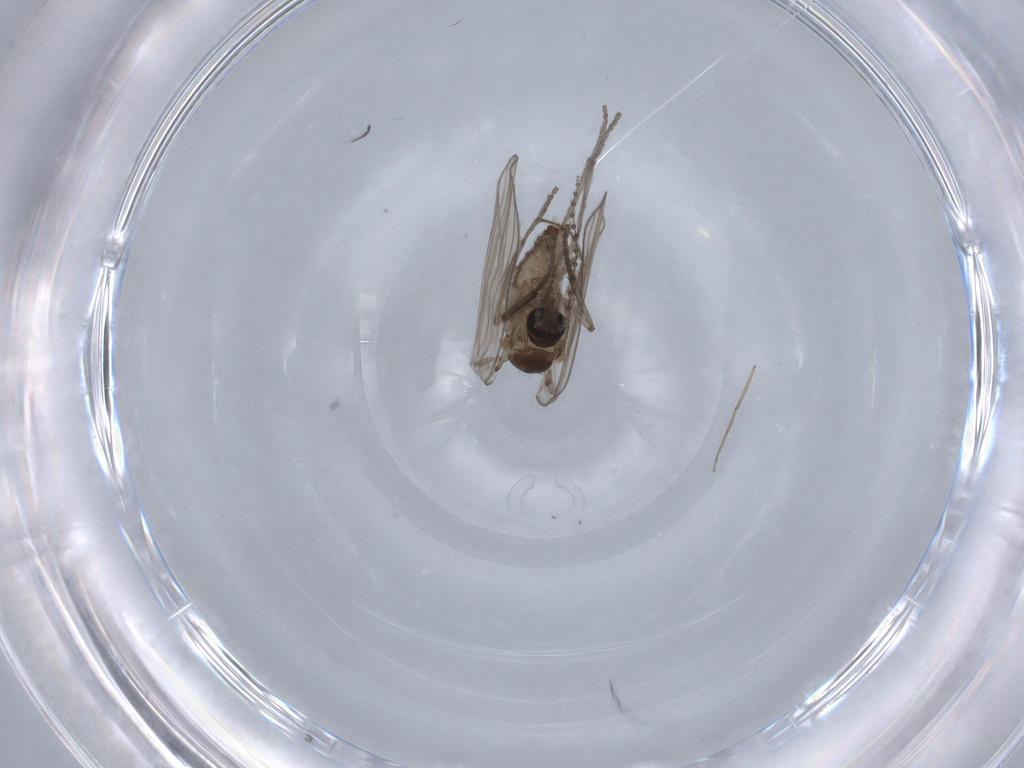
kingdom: Animalia
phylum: Arthropoda
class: Insecta
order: Diptera
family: Psychodidae
